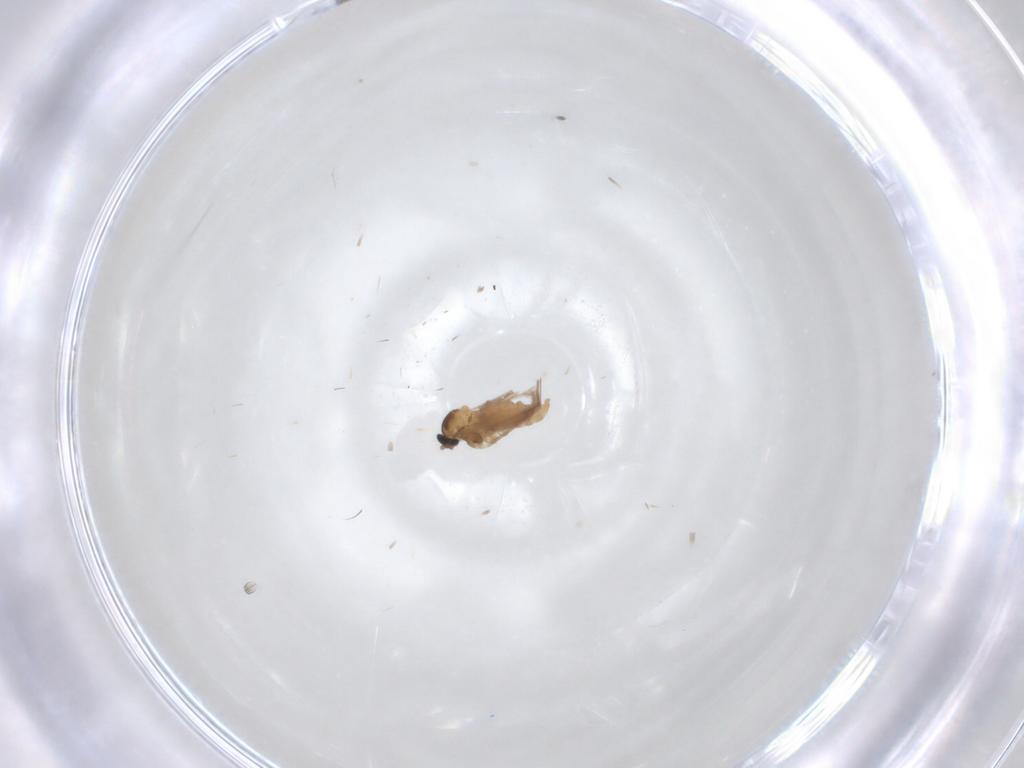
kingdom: Animalia
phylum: Arthropoda
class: Insecta
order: Diptera
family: Cecidomyiidae
